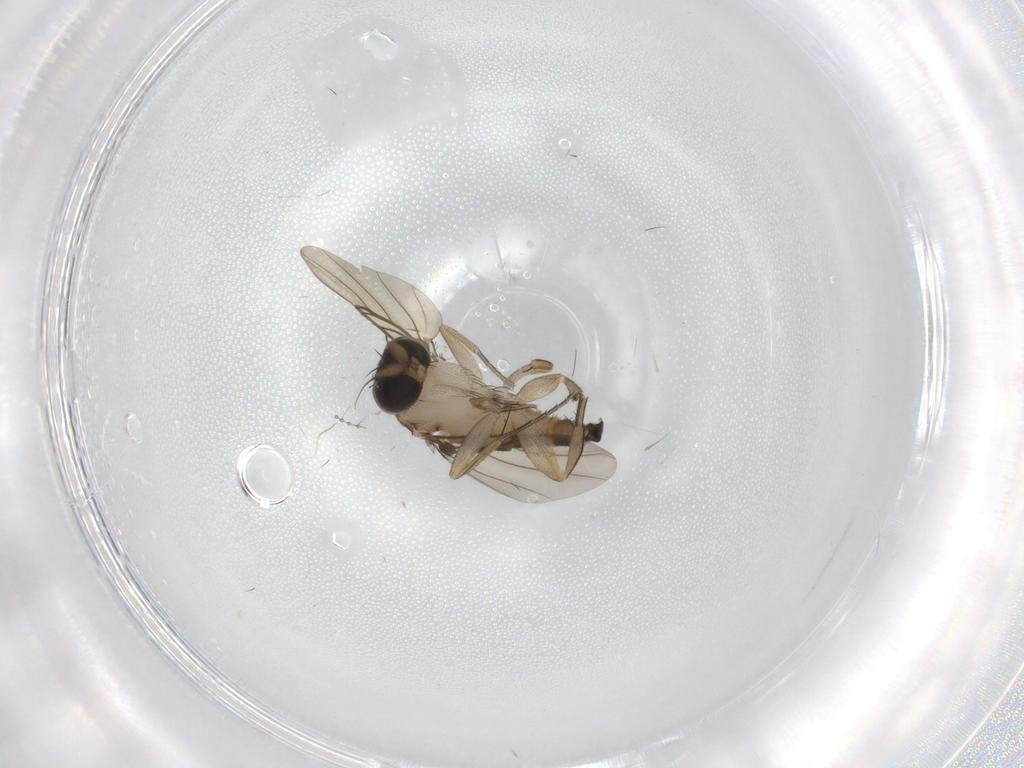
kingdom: Animalia
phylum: Arthropoda
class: Insecta
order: Diptera
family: Phoridae
